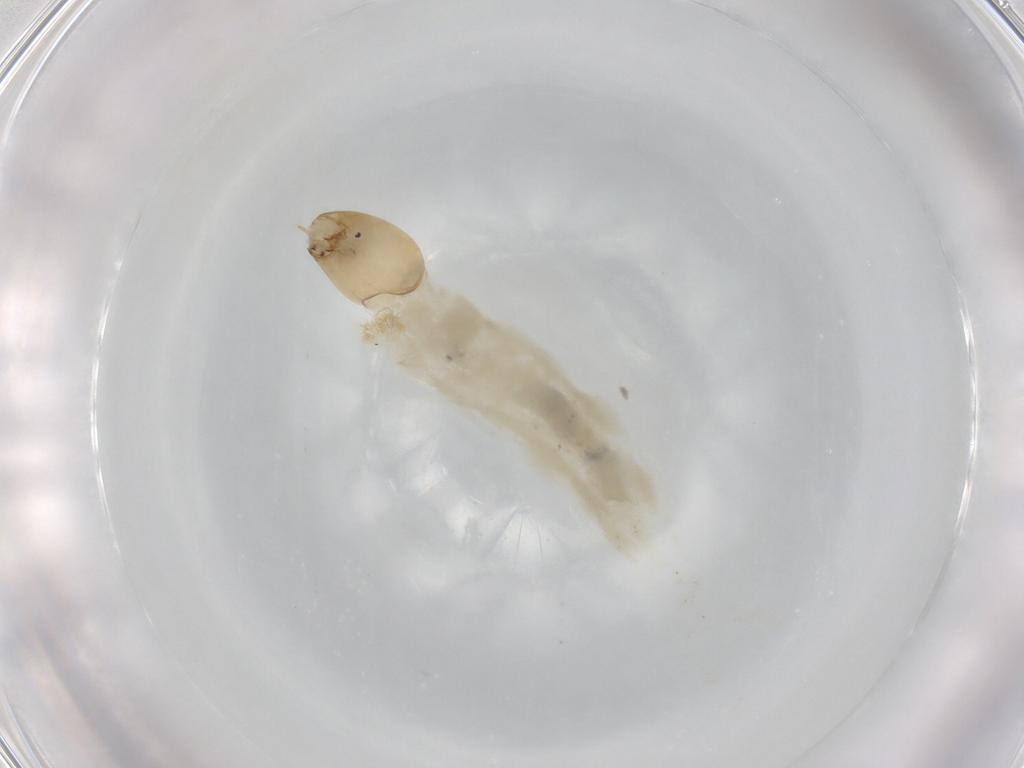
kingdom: Animalia
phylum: Arthropoda
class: Insecta
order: Diptera
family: Chironomidae
